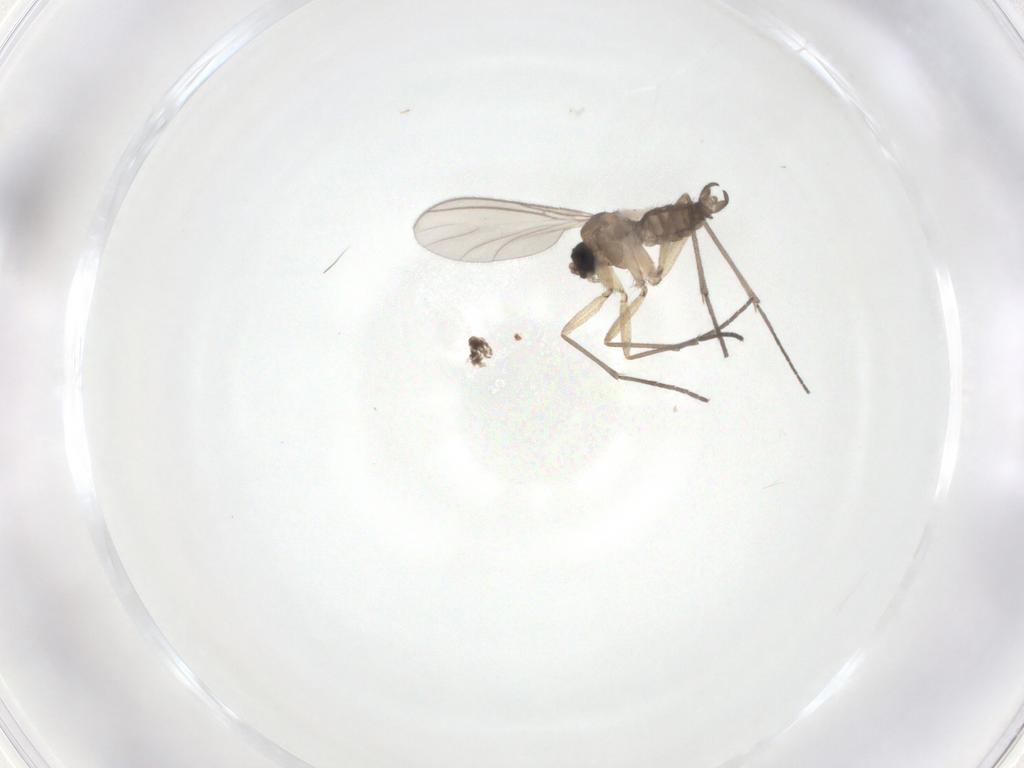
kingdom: Animalia
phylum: Arthropoda
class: Insecta
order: Diptera
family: Sciaridae
